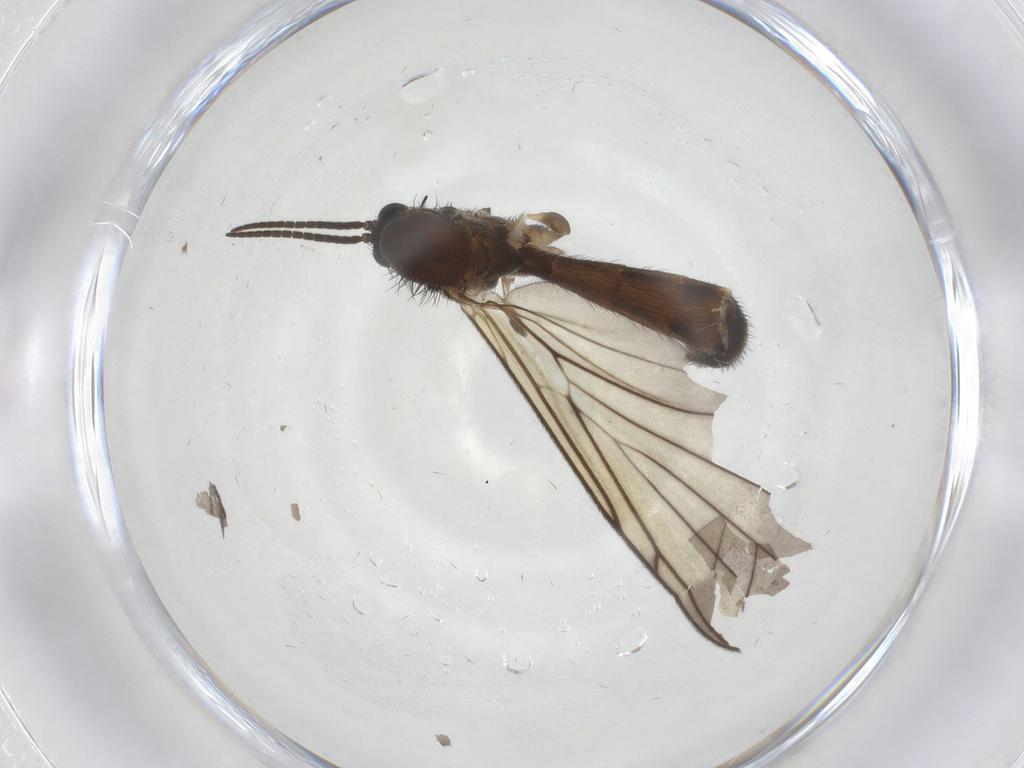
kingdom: Animalia
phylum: Arthropoda
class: Insecta
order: Diptera
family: Keroplatidae
